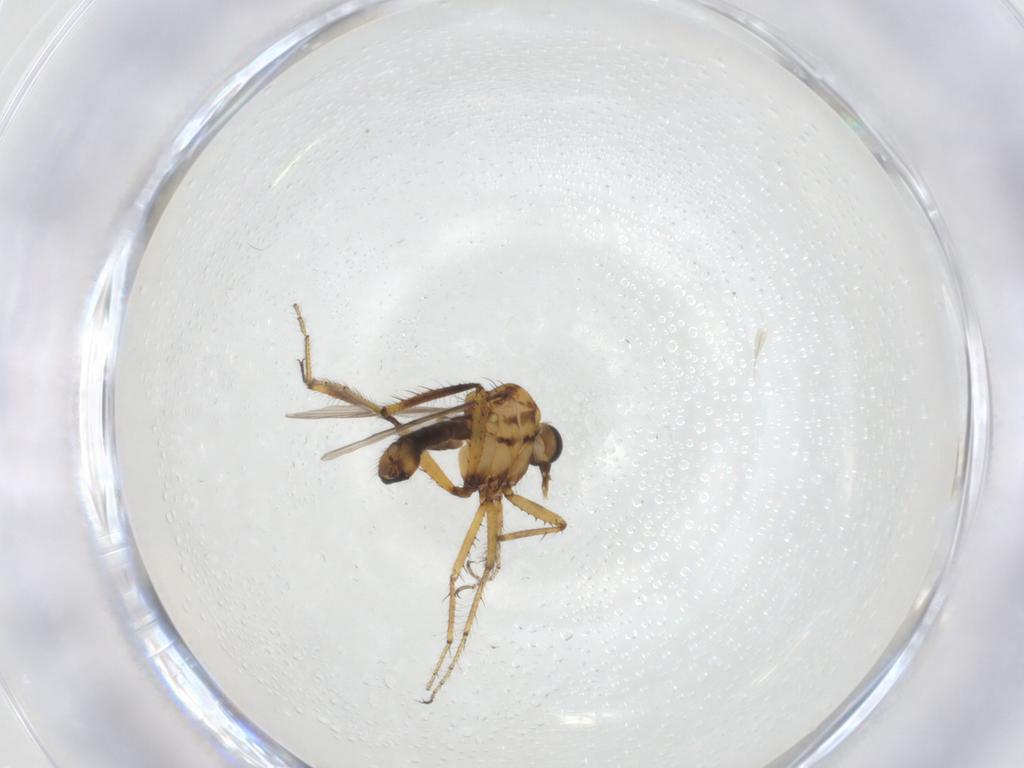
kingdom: Animalia
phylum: Arthropoda
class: Insecta
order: Diptera
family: Ceratopogonidae
